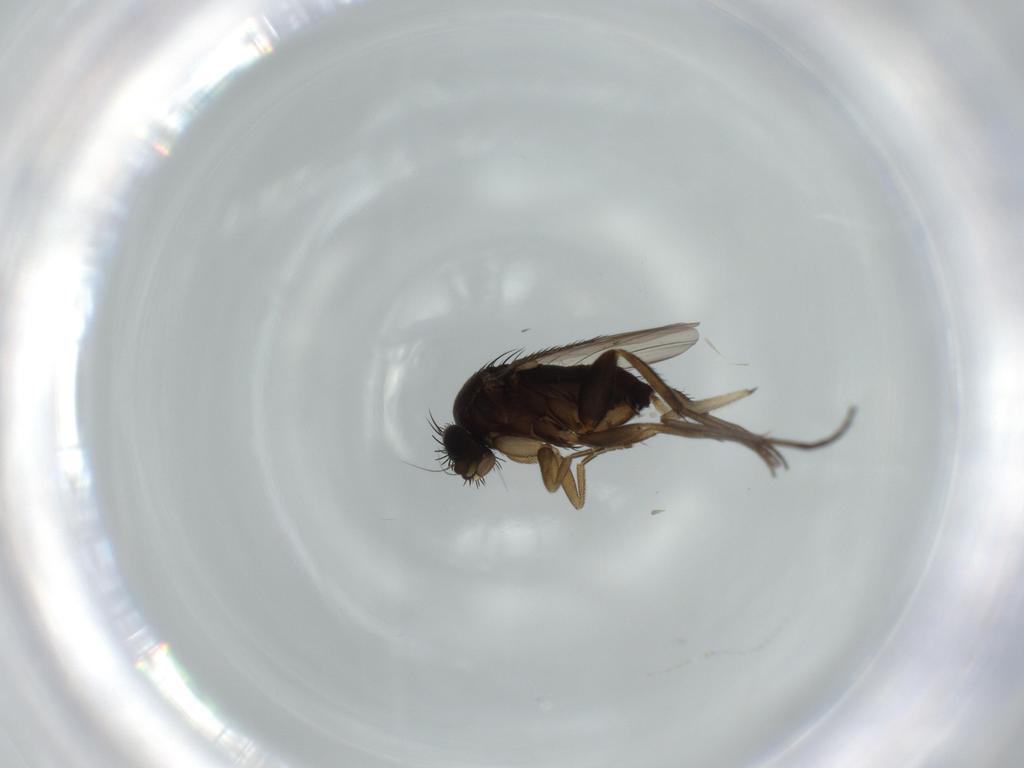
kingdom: Animalia
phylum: Arthropoda
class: Insecta
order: Diptera
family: Phoridae
